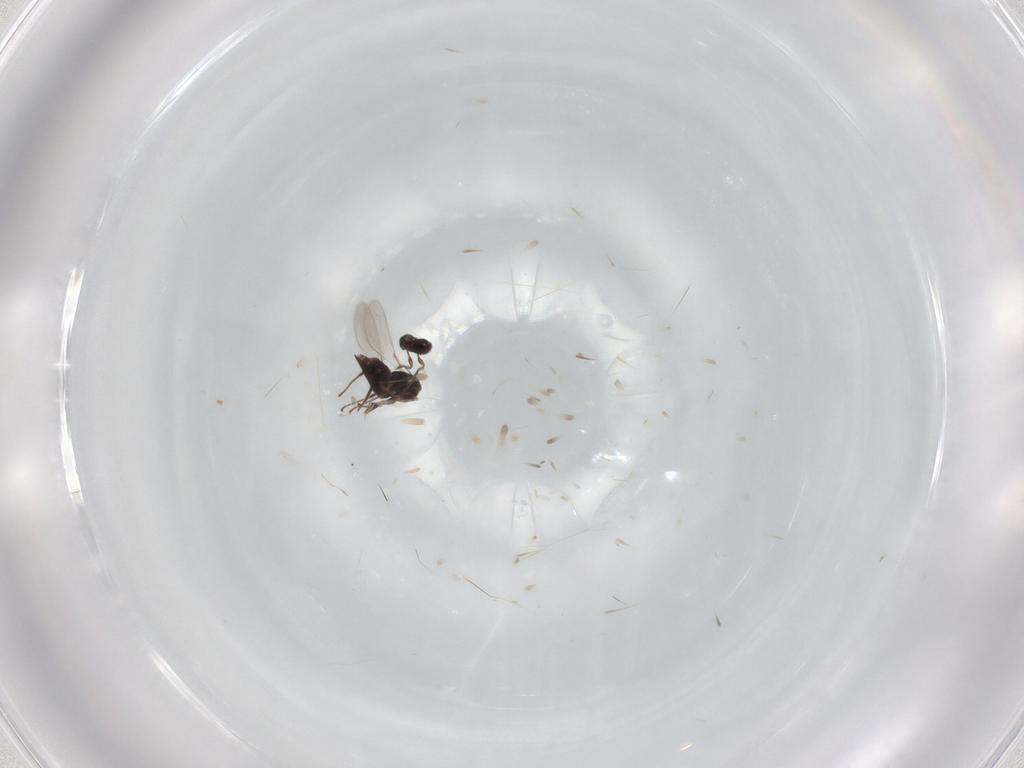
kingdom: Animalia
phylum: Arthropoda
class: Insecta
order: Hymenoptera
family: Mymaridae
